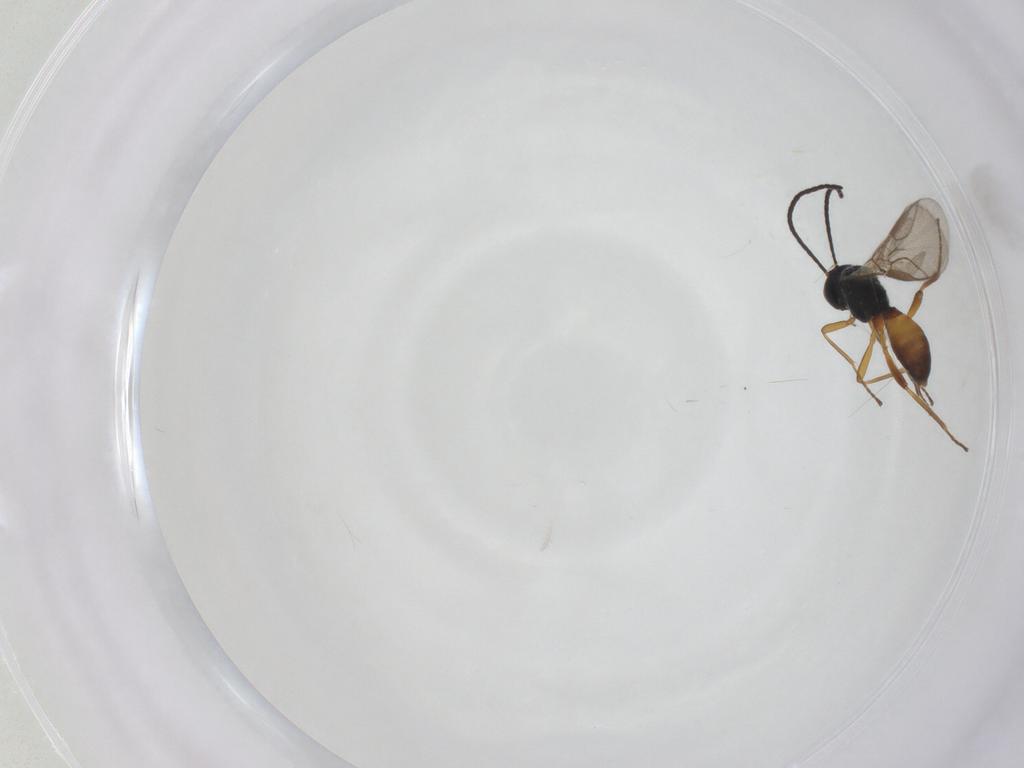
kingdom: Animalia
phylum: Arthropoda
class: Insecta
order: Hymenoptera
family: Braconidae
